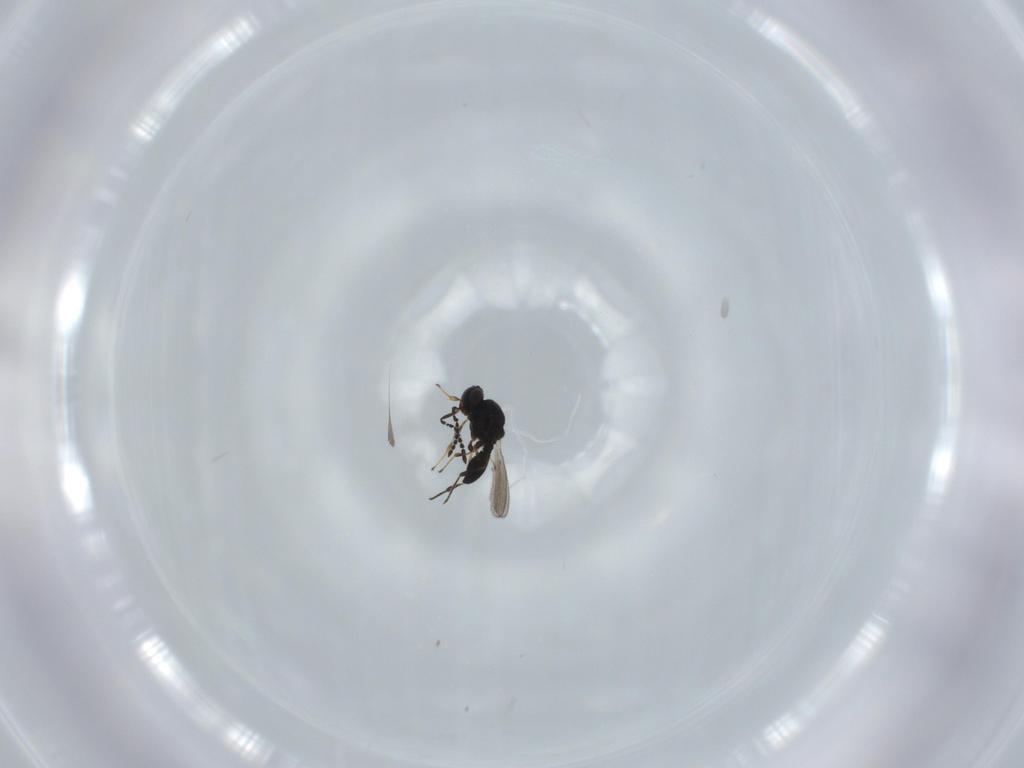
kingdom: Animalia
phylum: Arthropoda
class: Insecta
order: Hymenoptera
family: Platygastridae
